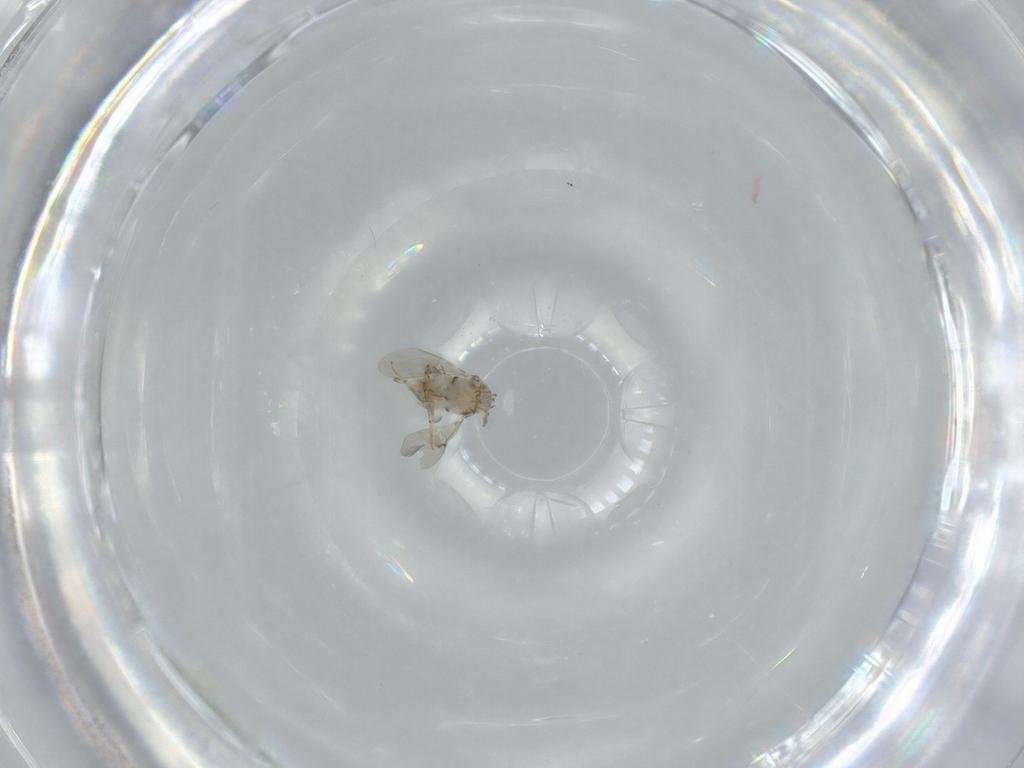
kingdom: Animalia
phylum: Arthropoda
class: Insecta
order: Hymenoptera
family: Encyrtidae
